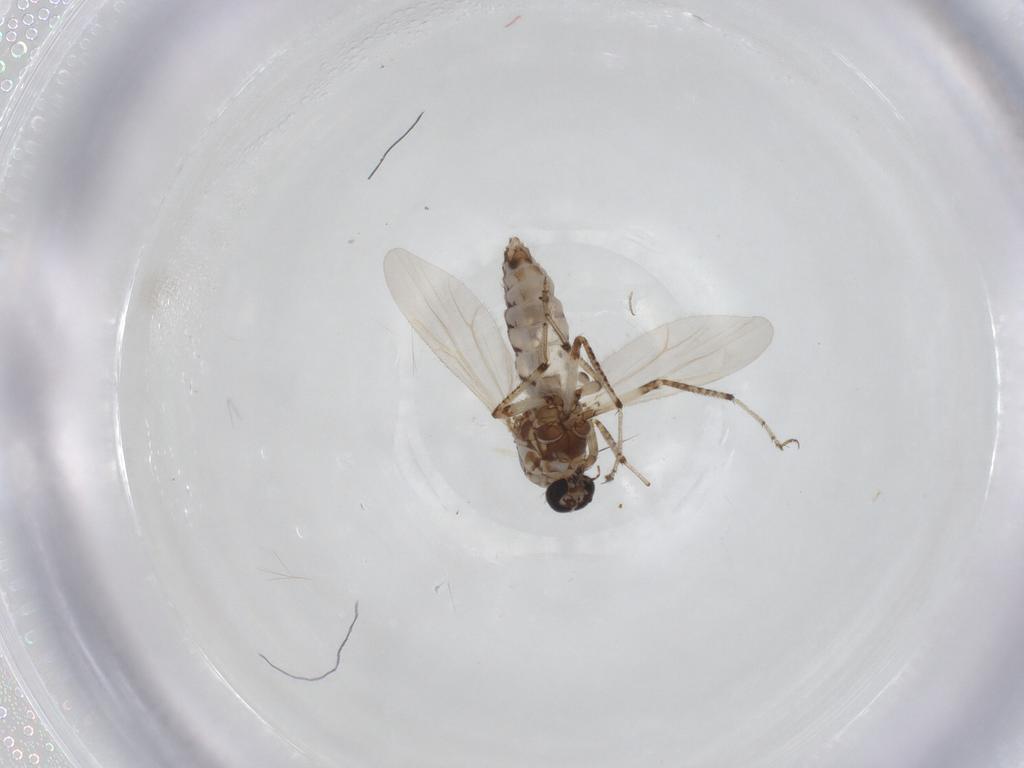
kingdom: Animalia
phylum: Arthropoda
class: Insecta
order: Diptera
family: Ceratopogonidae
